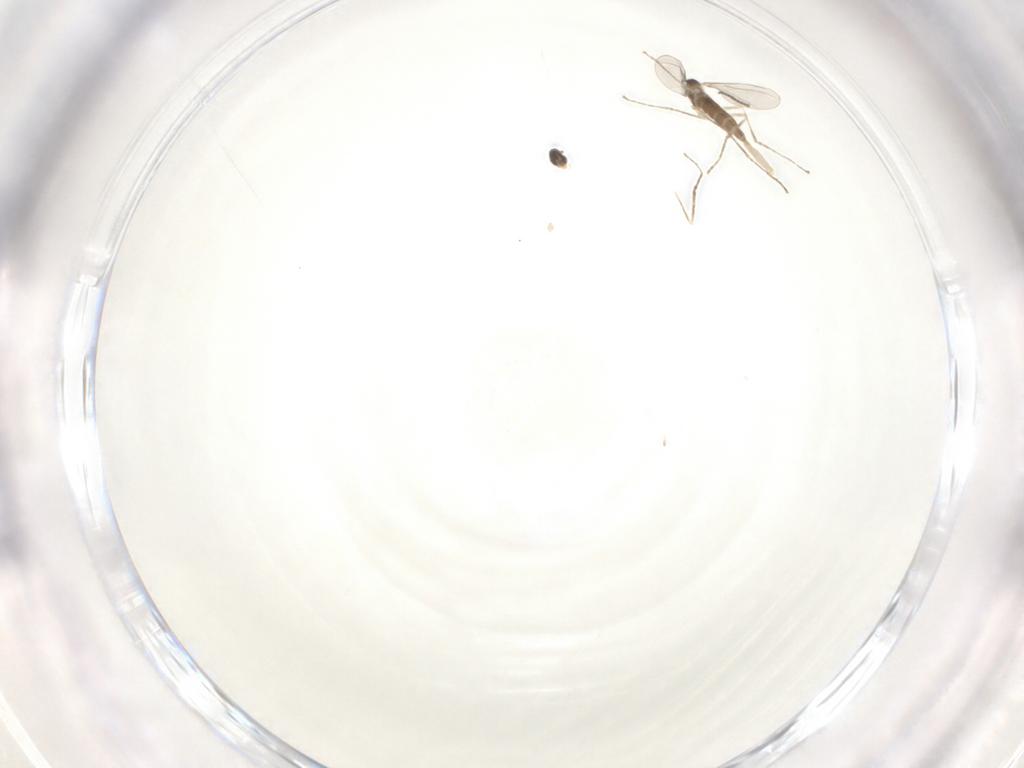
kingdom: Animalia
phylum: Arthropoda
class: Insecta
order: Diptera
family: Cecidomyiidae
